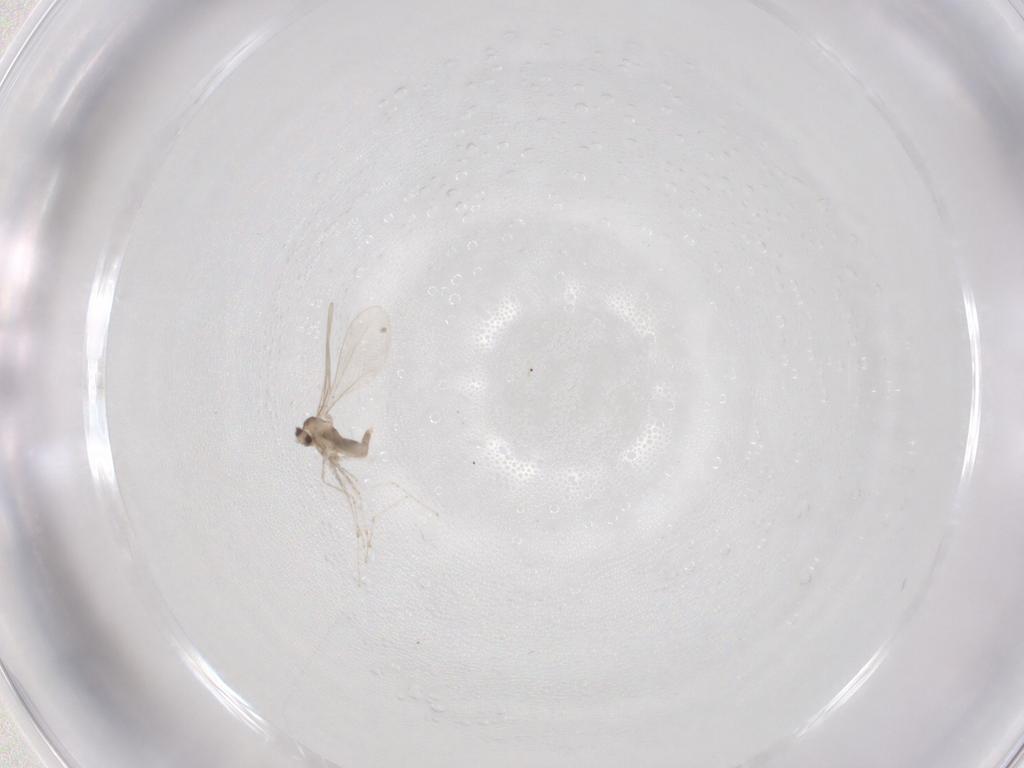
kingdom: Animalia
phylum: Arthropoda
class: Insecta
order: Diptera
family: Cecidomyiidae
